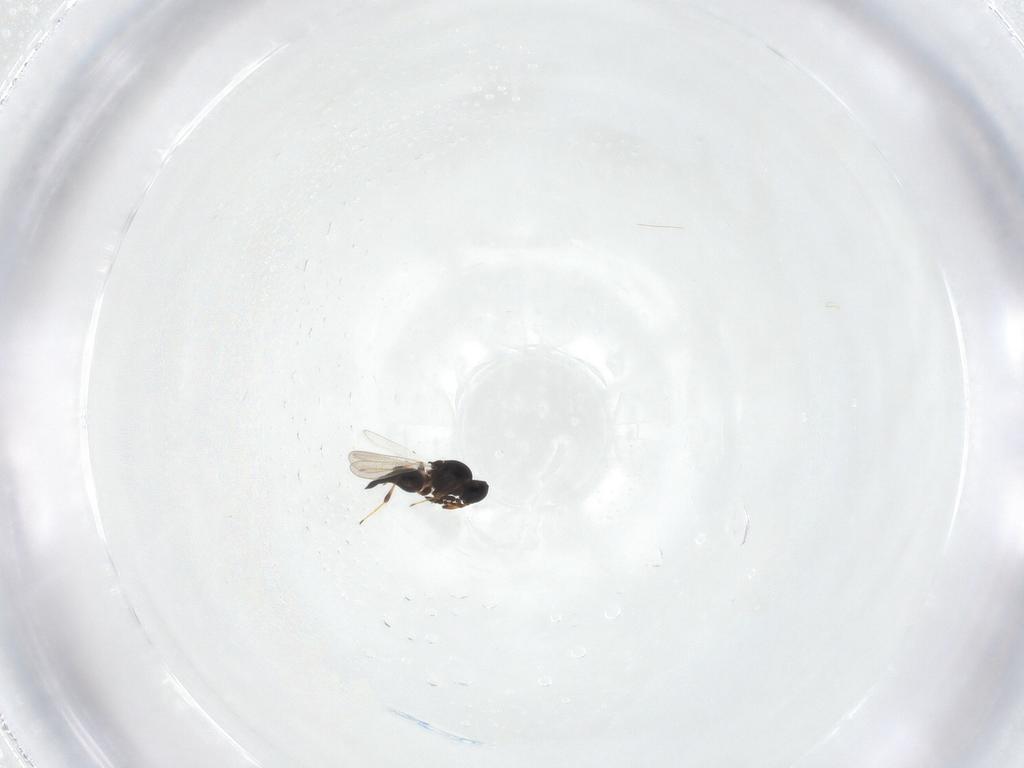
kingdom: Animalia
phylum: Arthropoda
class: Insecta
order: Hymenoptera
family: Platygastridae
